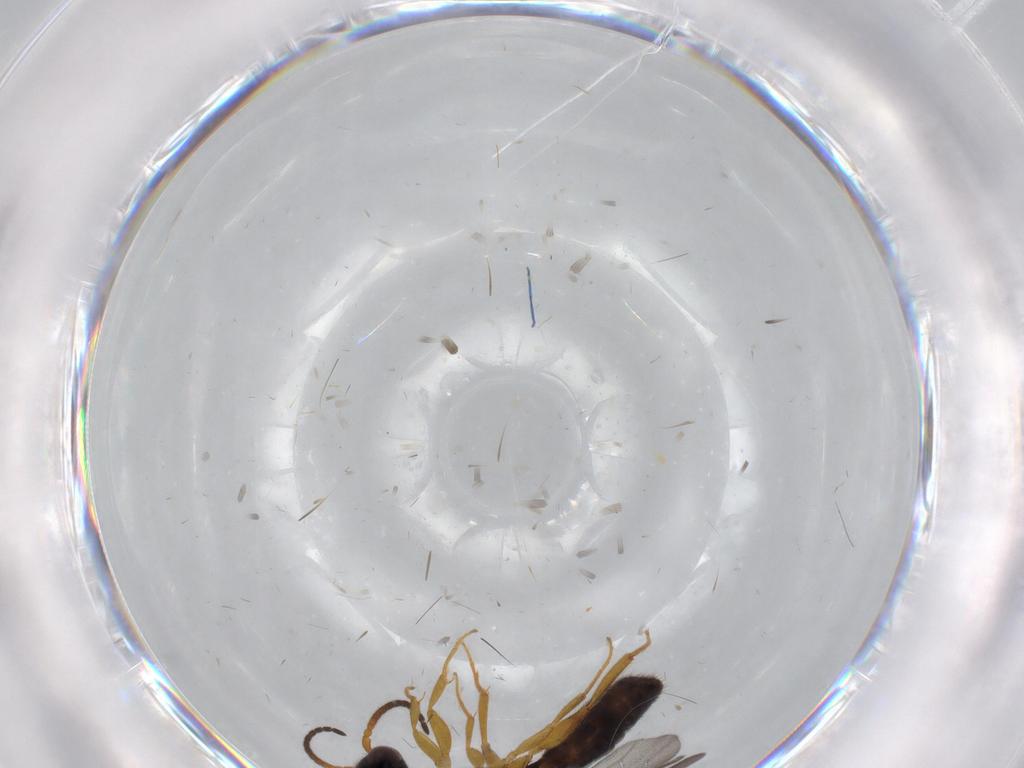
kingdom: Animalia
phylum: Arthropoda
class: Insecta
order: Hymenoptera
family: Bethylidae
